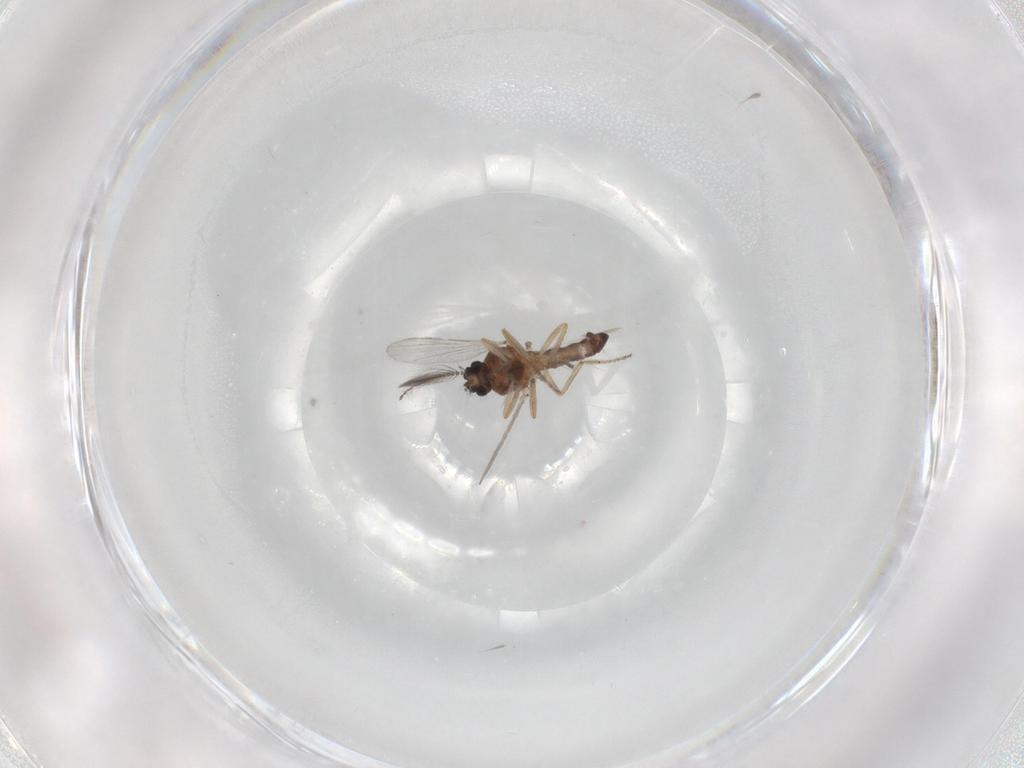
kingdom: Animalia
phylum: Arthropoda
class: Insecta
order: Diptera
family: Ceratopogonidae
